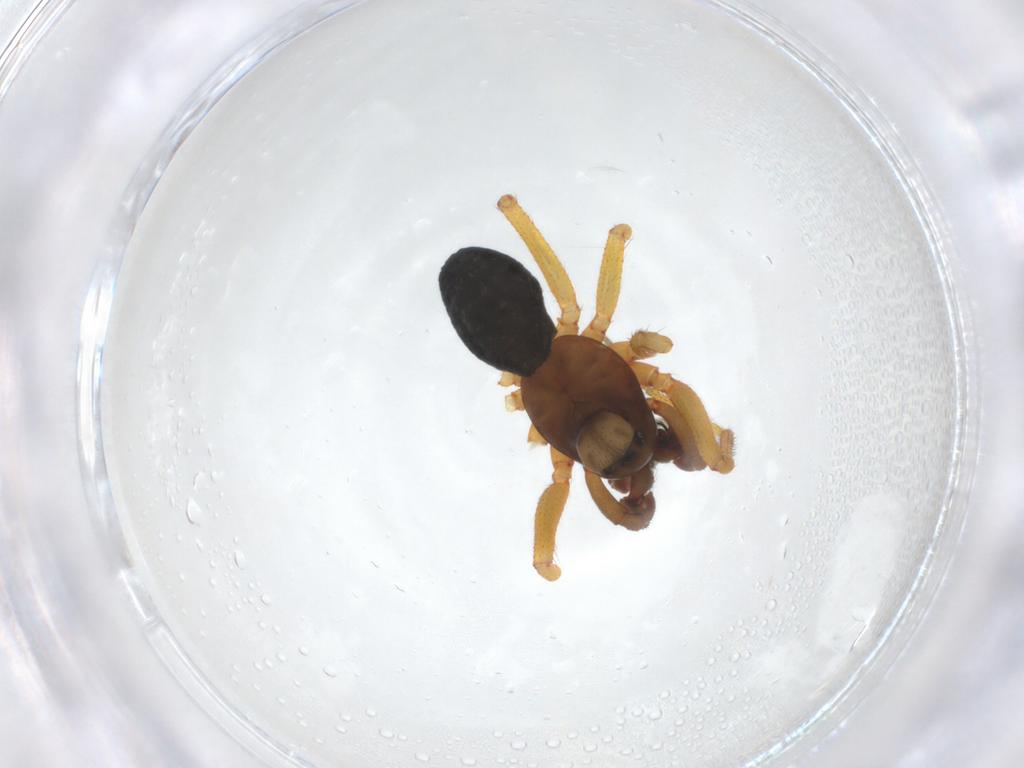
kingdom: Animalia
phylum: Arthropoda
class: Arachnida
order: Araneae
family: Linyphiidae
